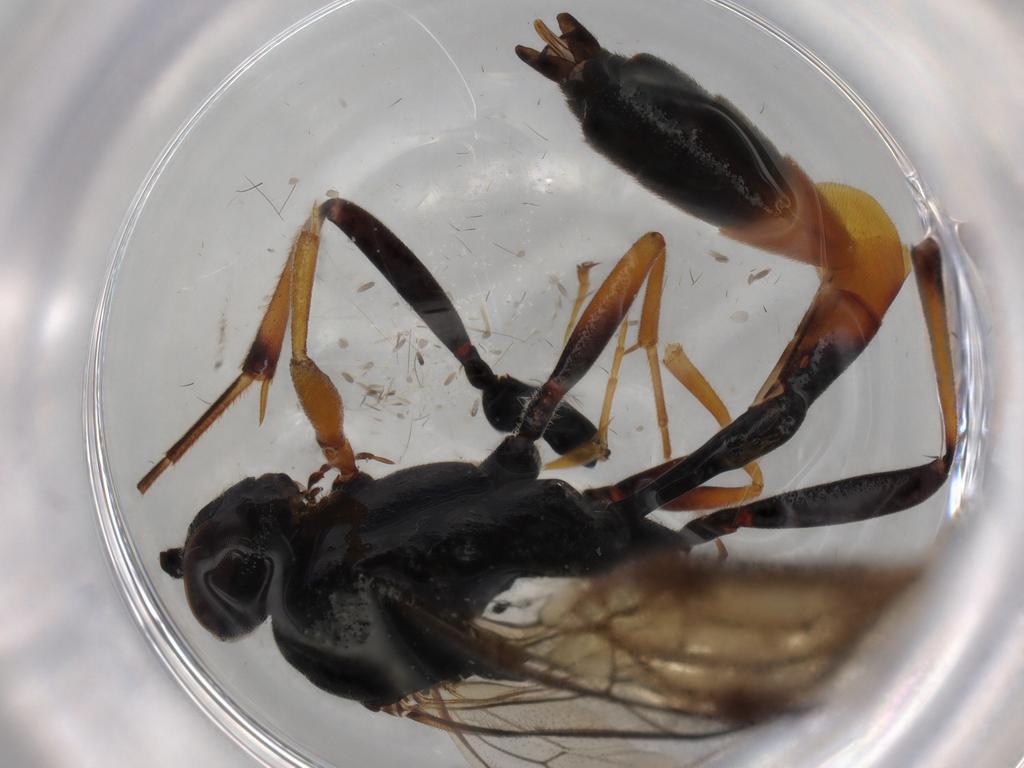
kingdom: Animalia
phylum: Arthropoda
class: Insecta
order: Hymenoptera
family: Ichneumonidae
